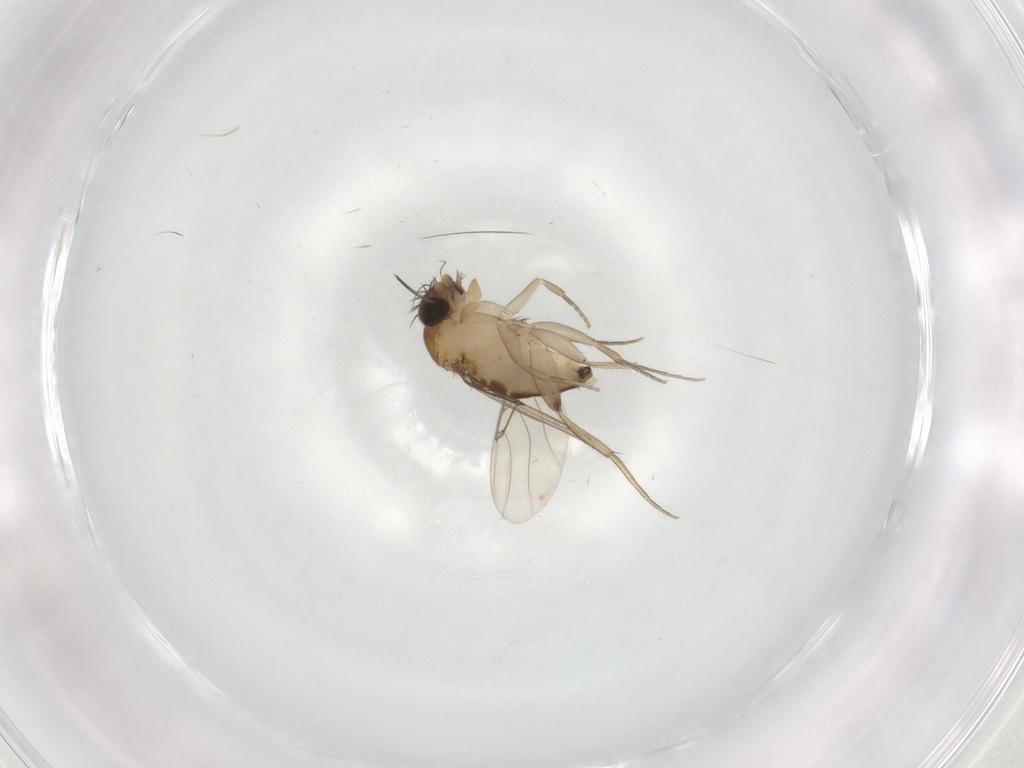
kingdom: Animalia
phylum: Arthropoda
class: Insecta
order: Diptera
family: Phoridae
